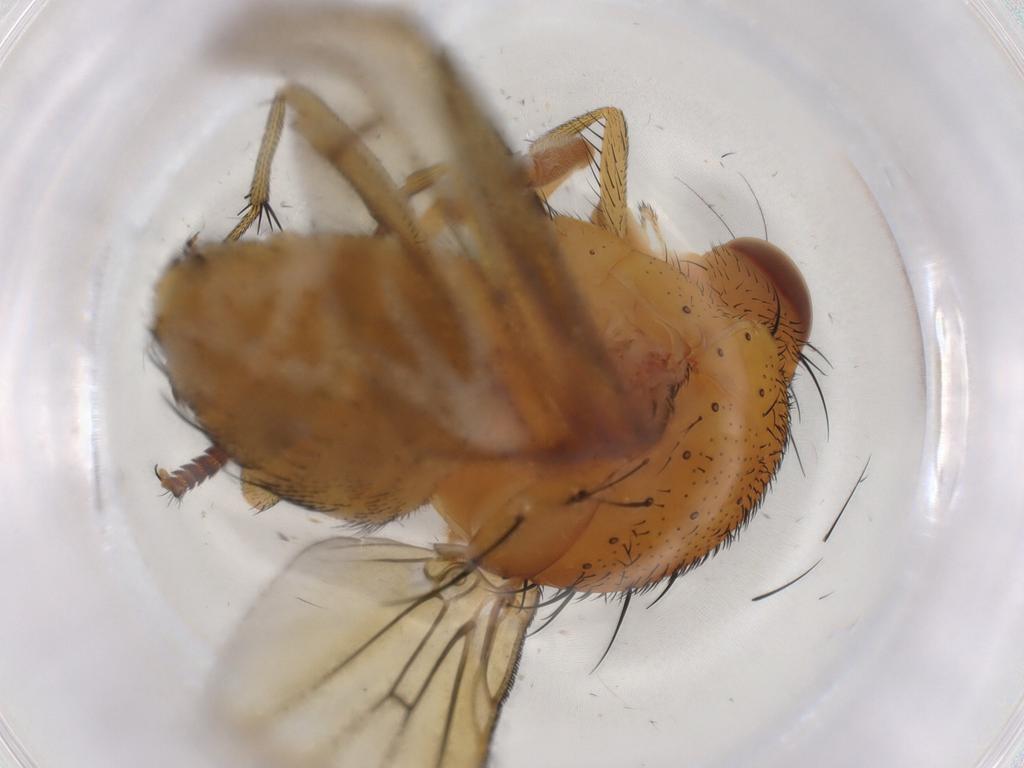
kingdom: Animalia
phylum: Arthropoda
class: Insecta
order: Diptera
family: Lauxaniidae
